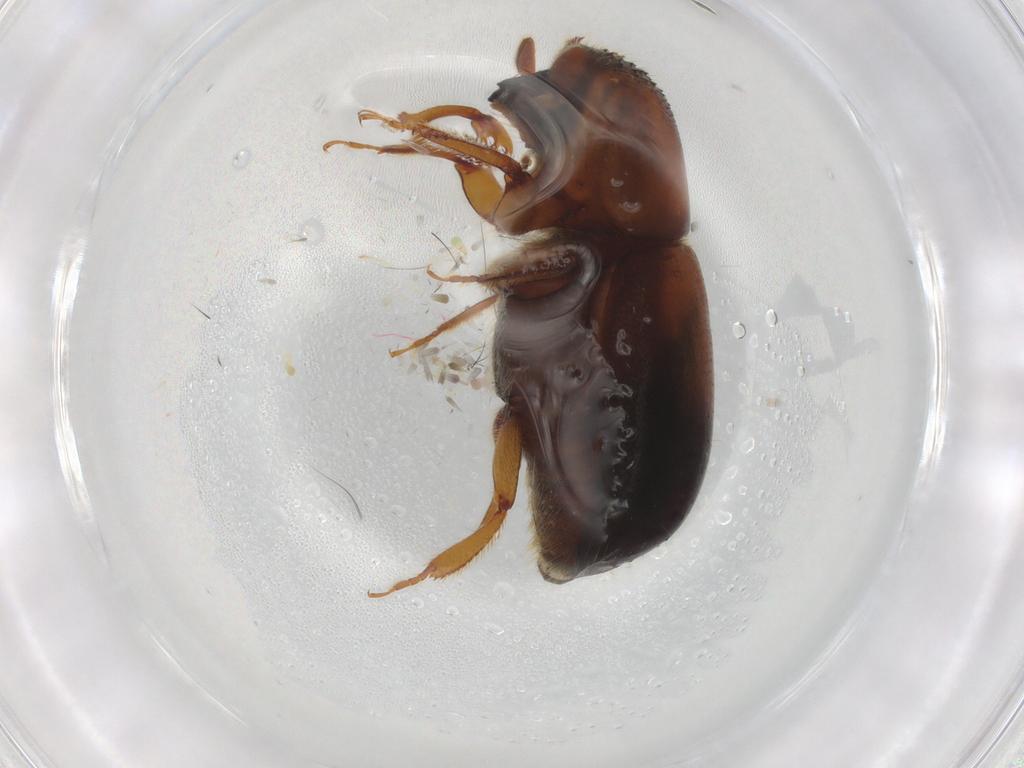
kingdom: Animalia
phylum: Arthropoda
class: Insecta
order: Coleoptera
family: Curculionidae
